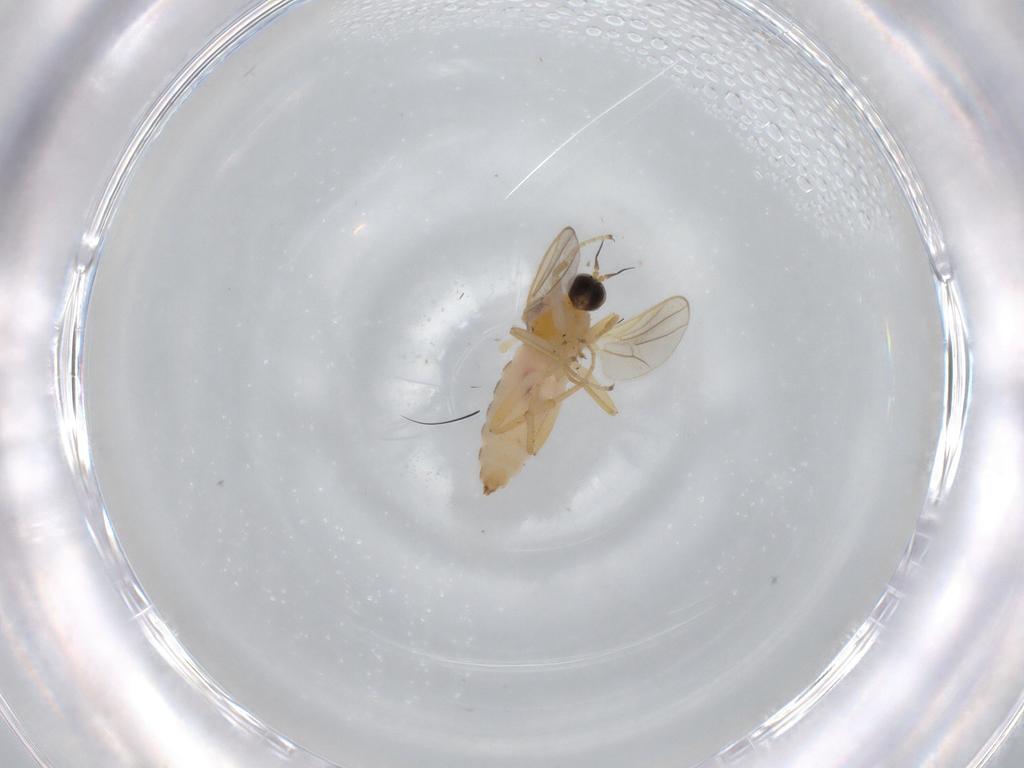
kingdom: Animalia
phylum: Arthropoda
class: Insecta
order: Diptera
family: Hybotidae
